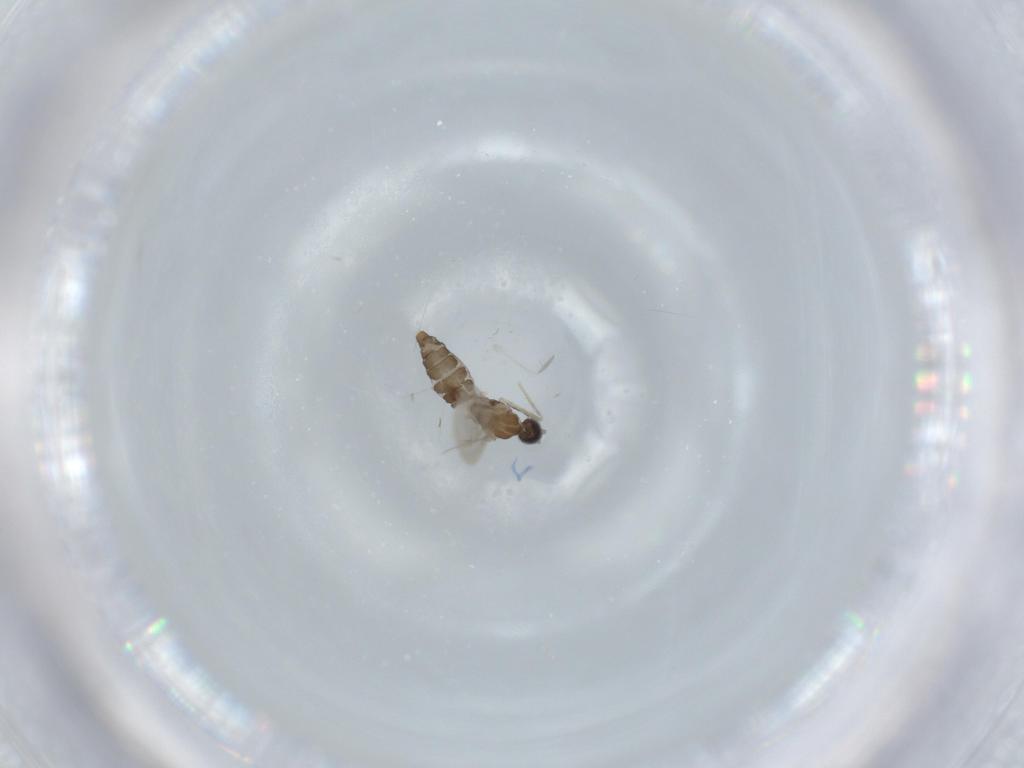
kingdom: Animalia
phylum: Arthropoda
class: Insecta
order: Diptera
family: Cecidomyiidae
